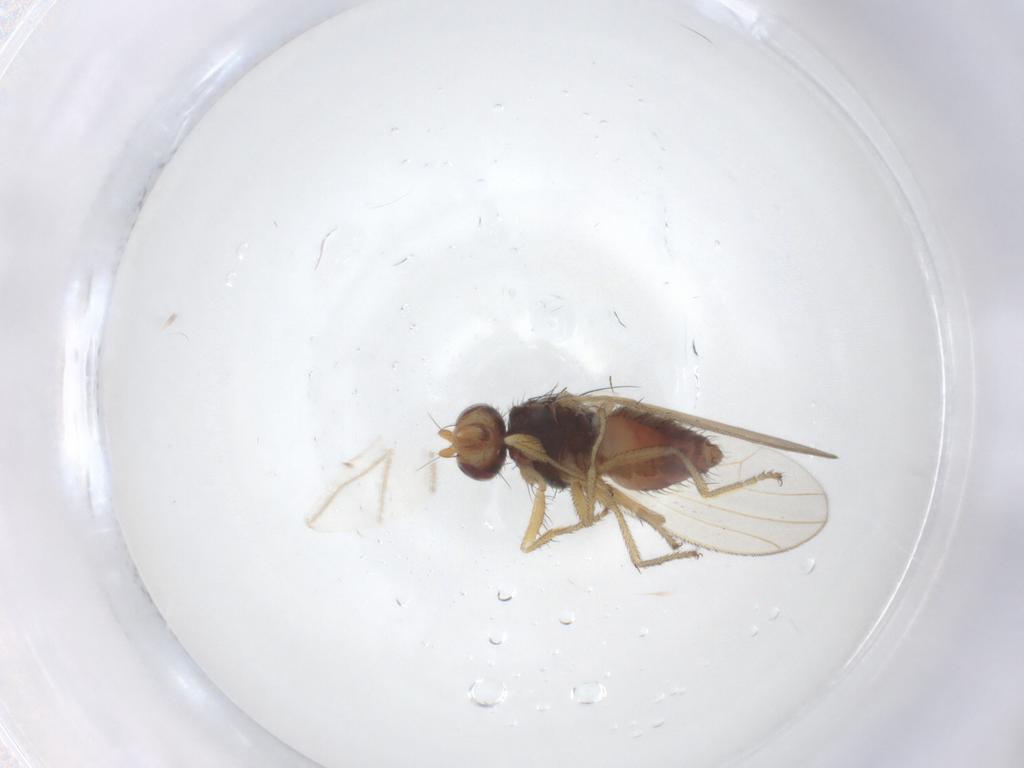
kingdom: Animalia
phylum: Arthropoda
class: Insecta
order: Diptera
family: Heleomyzidae
